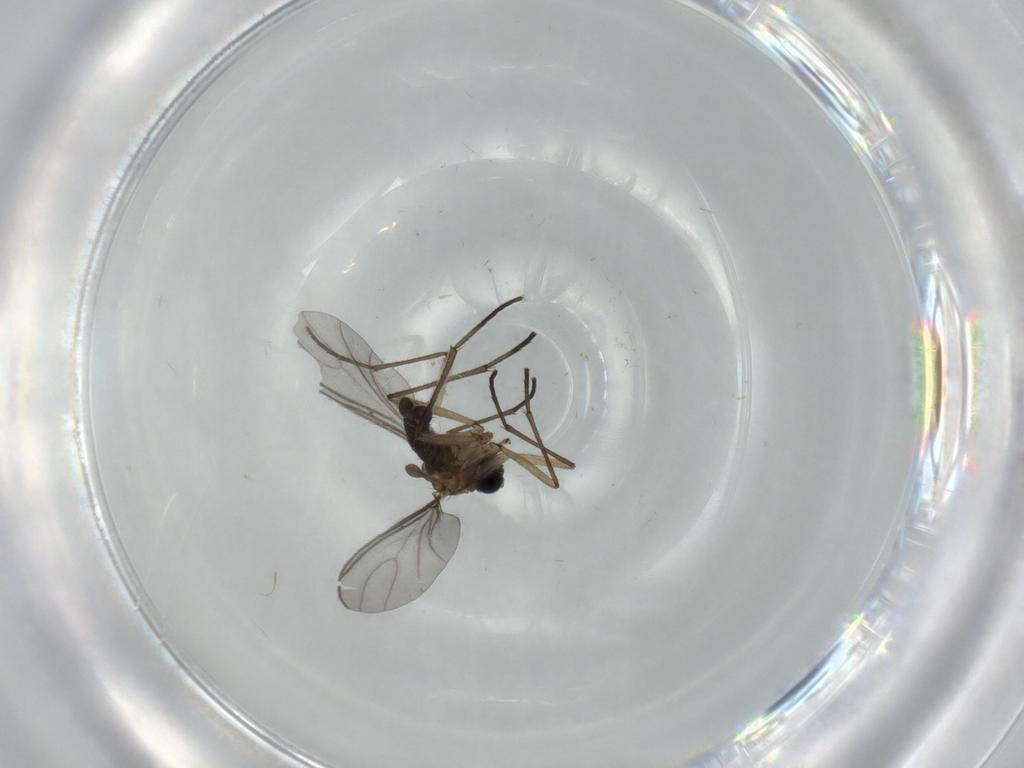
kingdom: Animalia
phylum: Arthropoda
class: Insecta
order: Diptera
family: Sciaridae
